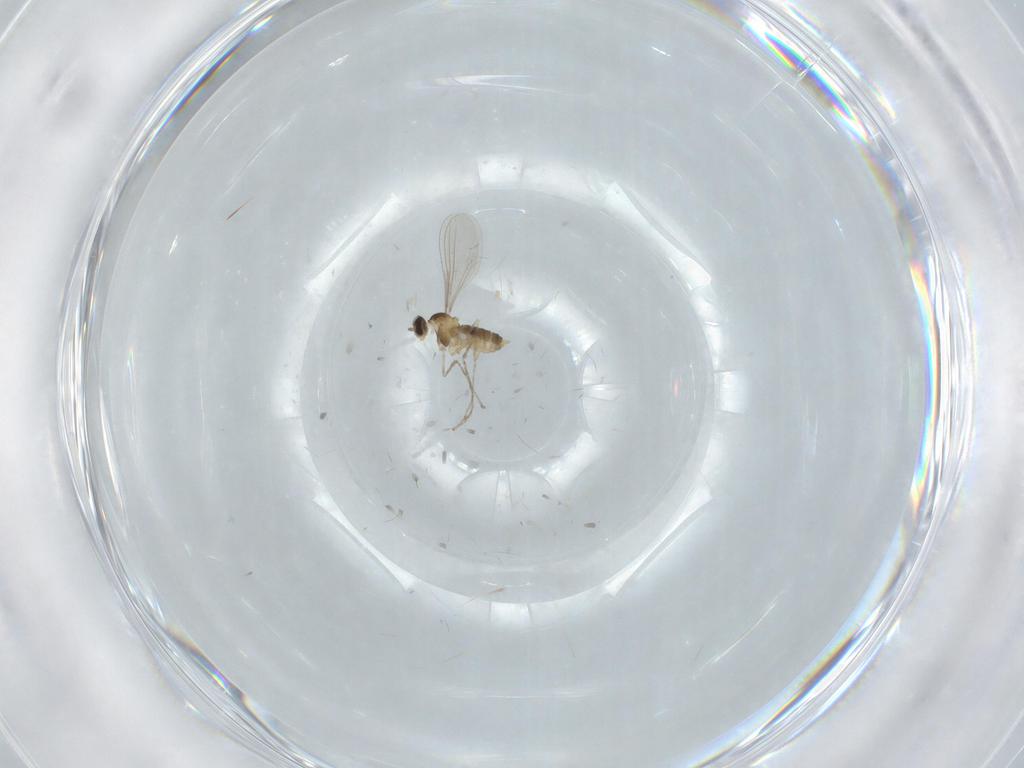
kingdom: Animalia
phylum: Arthropoda
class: Insecta
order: Diptera
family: Cecidomyiidae
